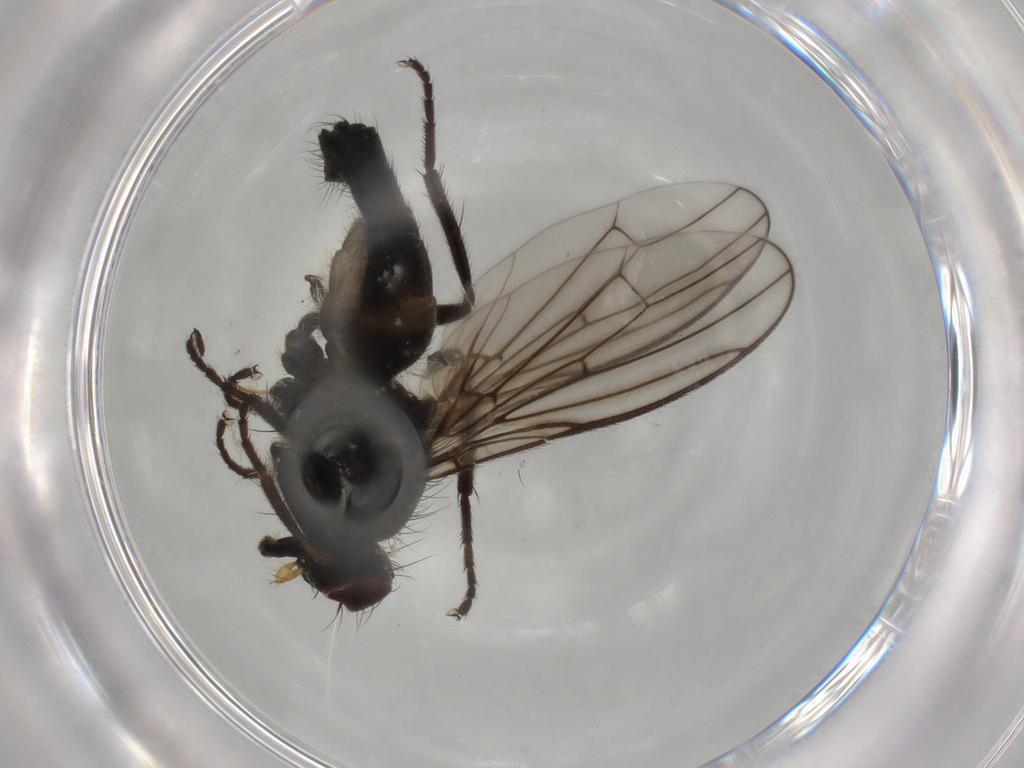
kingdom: Animalia
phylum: Arthropoda
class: Insecta
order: Diptera
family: Scathophagidae
